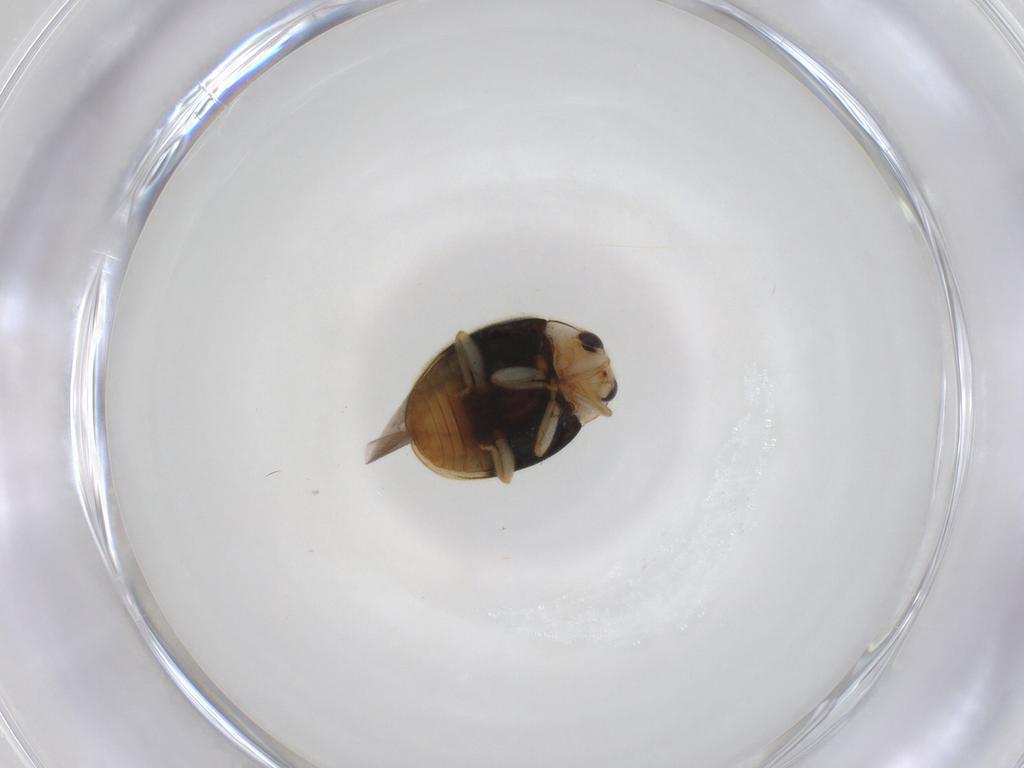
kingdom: Animalia
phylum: Arthropoda
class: Insecta
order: Coleoptera
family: Coccinellidae
